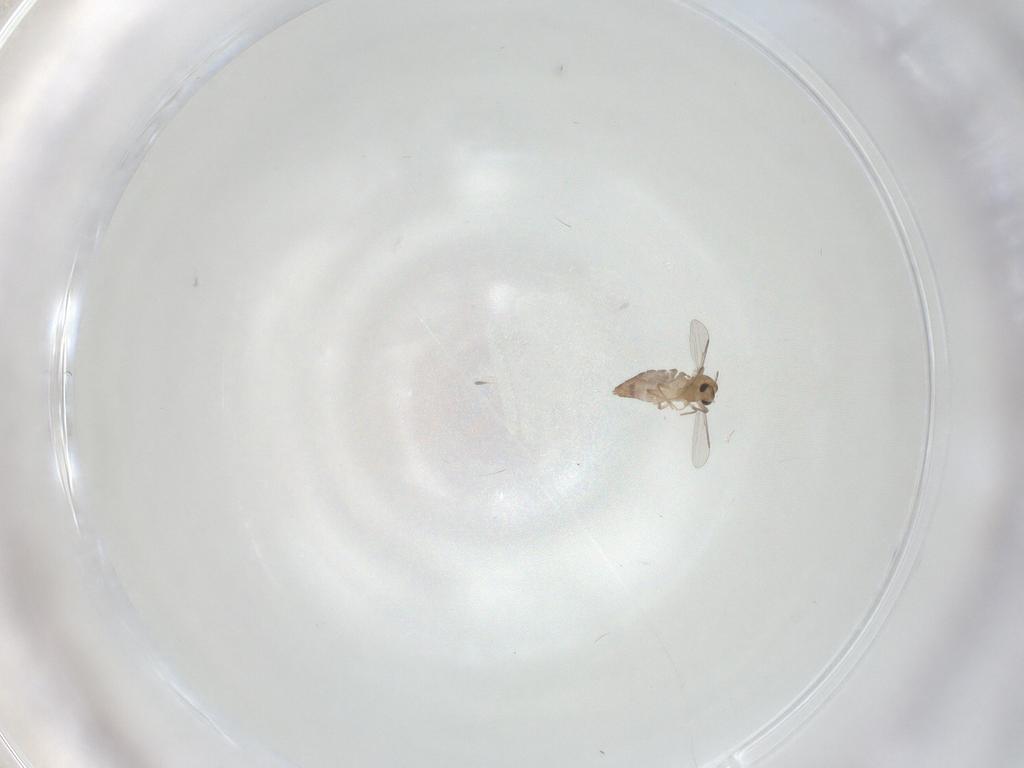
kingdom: Animalia
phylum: Arthropoda
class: Insecta
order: Diptera
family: Chironomidae
